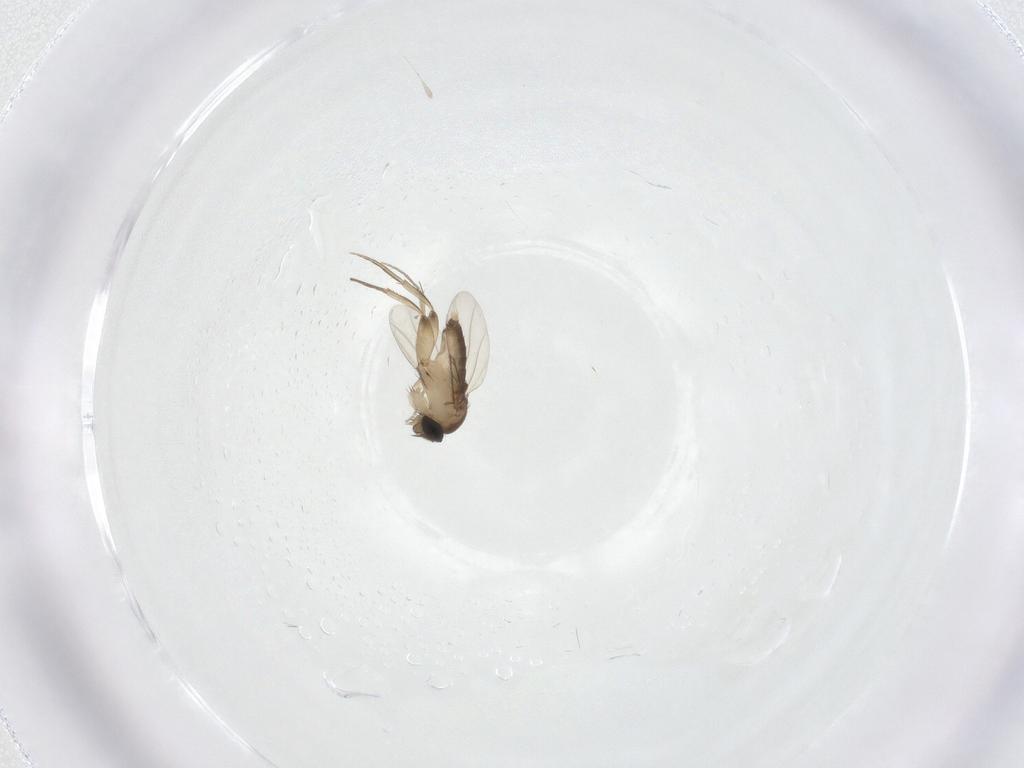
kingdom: Animalia
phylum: Arthropoda
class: Insecta
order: Diptera
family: Phoridae
